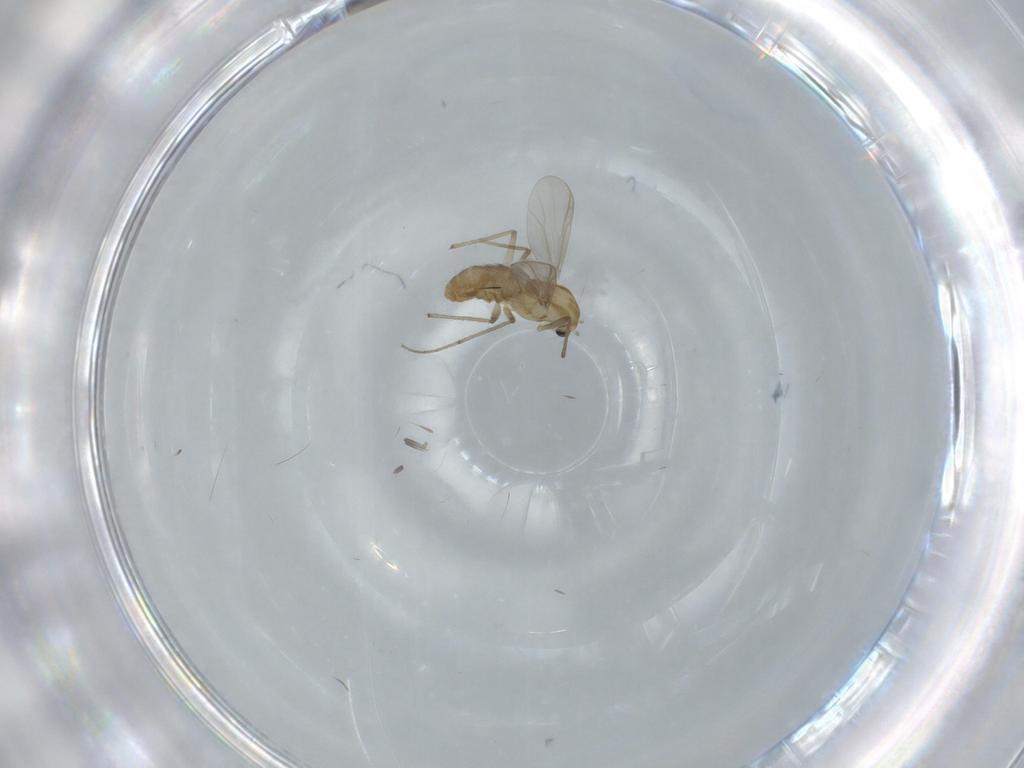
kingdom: Animalia
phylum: Arthropoda
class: Insecta
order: Diptera
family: Chironomidae
